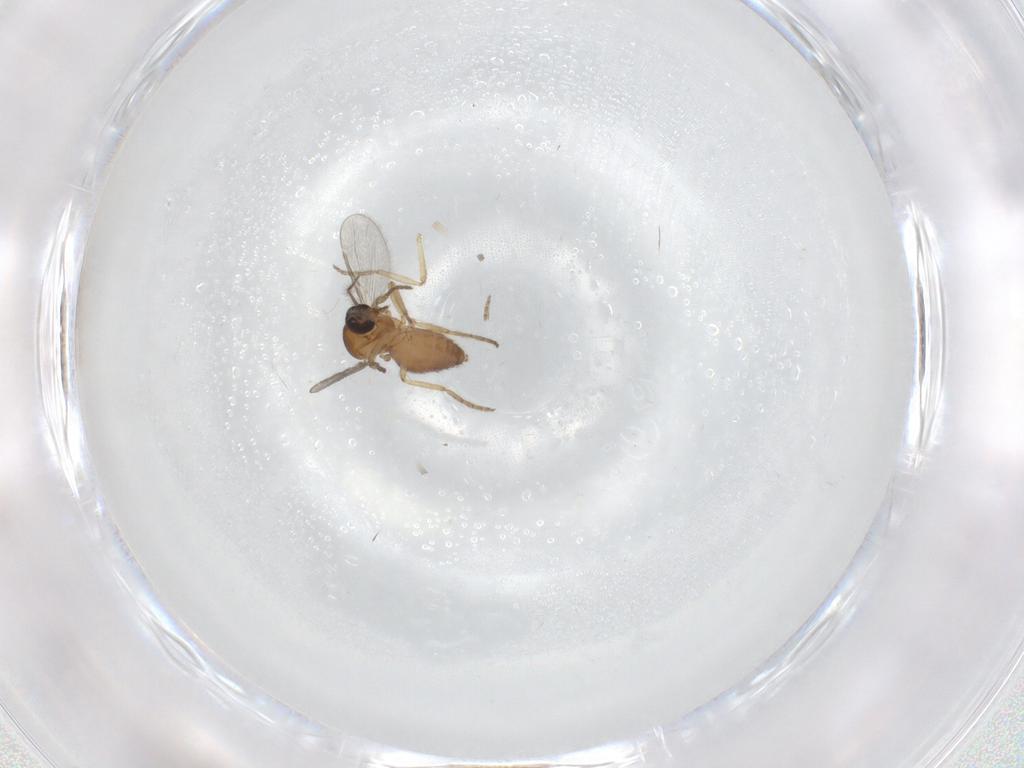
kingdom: Animalia
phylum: Arthropoda
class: Insecta
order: Diptera
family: Ceratopogonidae
